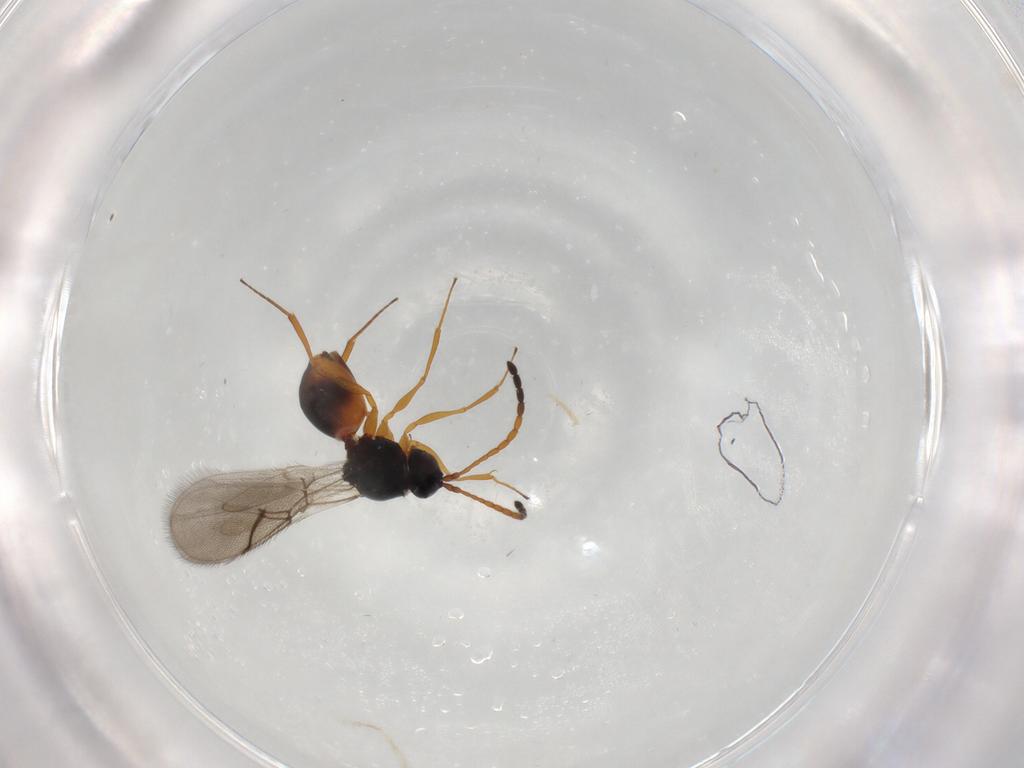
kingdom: Animalia
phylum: Arthropoda
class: Insecta
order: Hymenoptera
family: Figitidae
